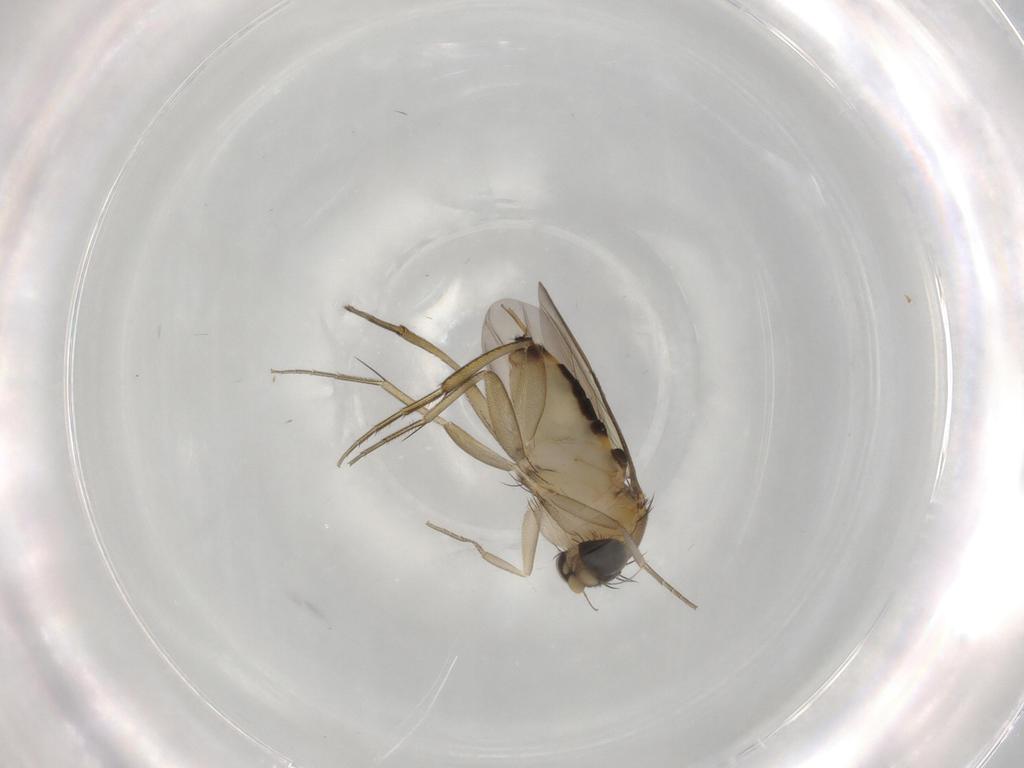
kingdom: Animalia
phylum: Arthropoda
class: Insecta
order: Diptera
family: Phoridae
